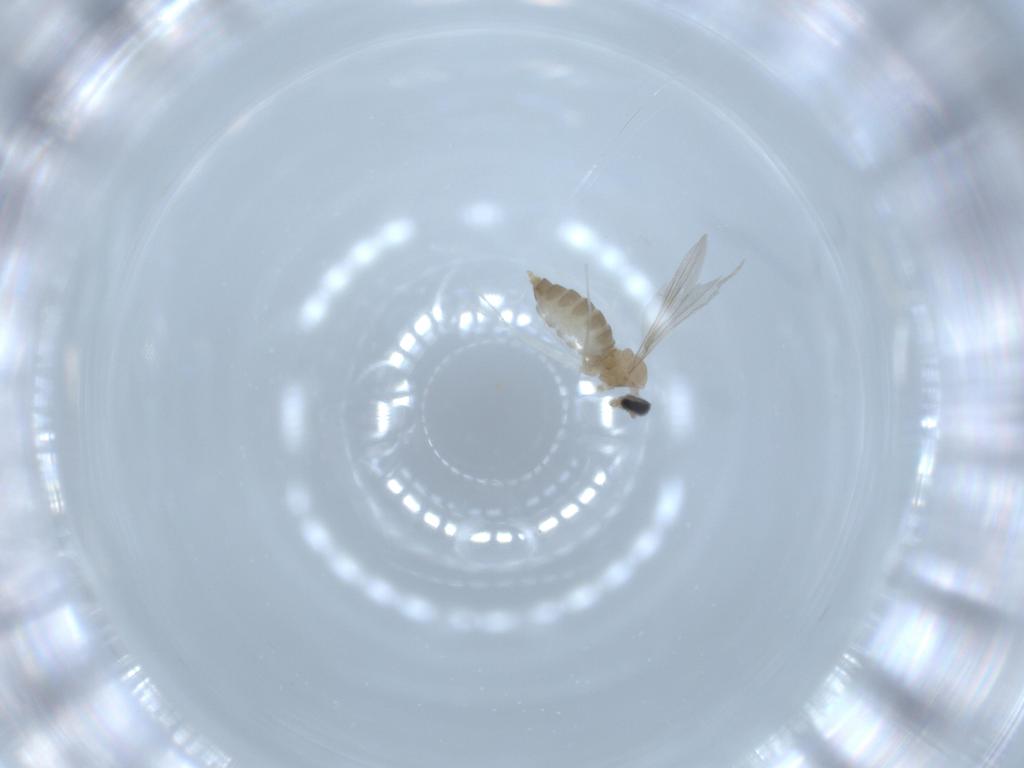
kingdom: Animalia
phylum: Arthropoda
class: Insecta
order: Diptera
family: Cecidomyiidae
